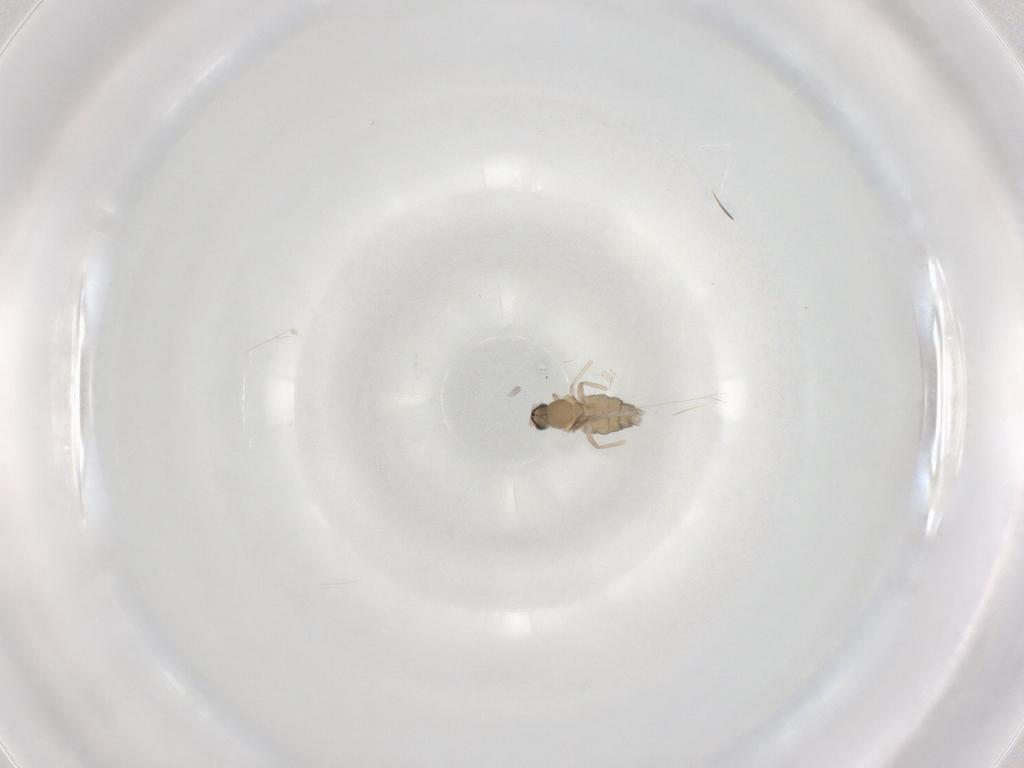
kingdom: Animalia
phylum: Arthropoda
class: Insecta
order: Diptera
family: Cecidomyiidae
